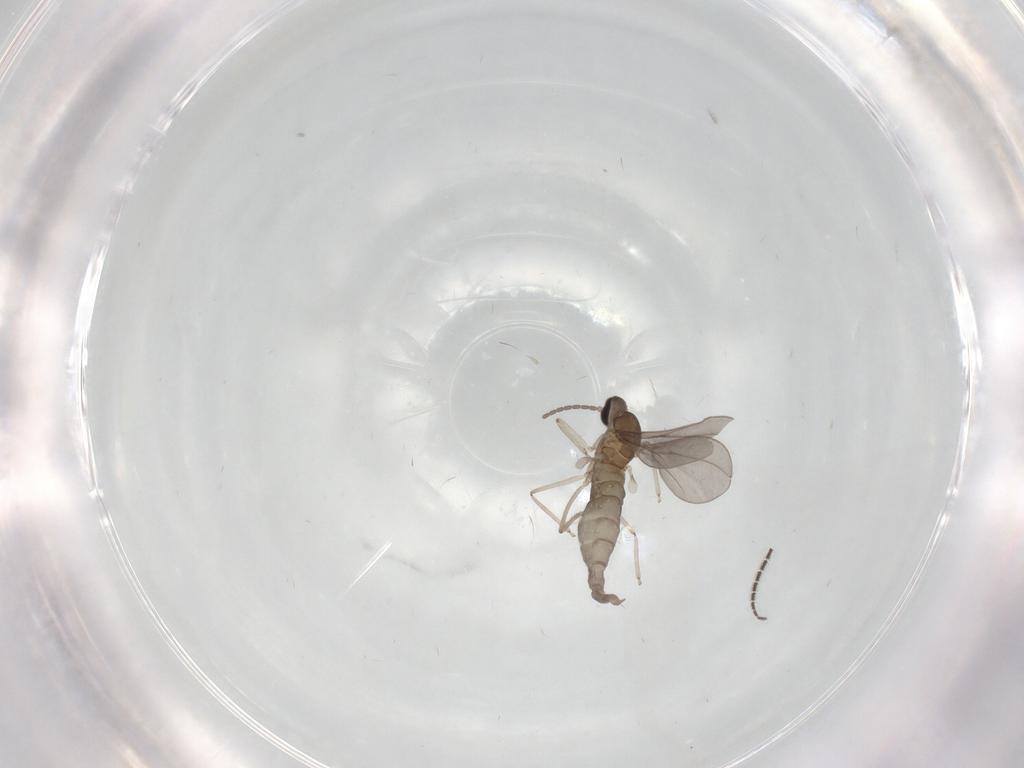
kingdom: Animalia
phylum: Arthropoda
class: Insecta
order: Diptera
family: Cecidomyiidae
